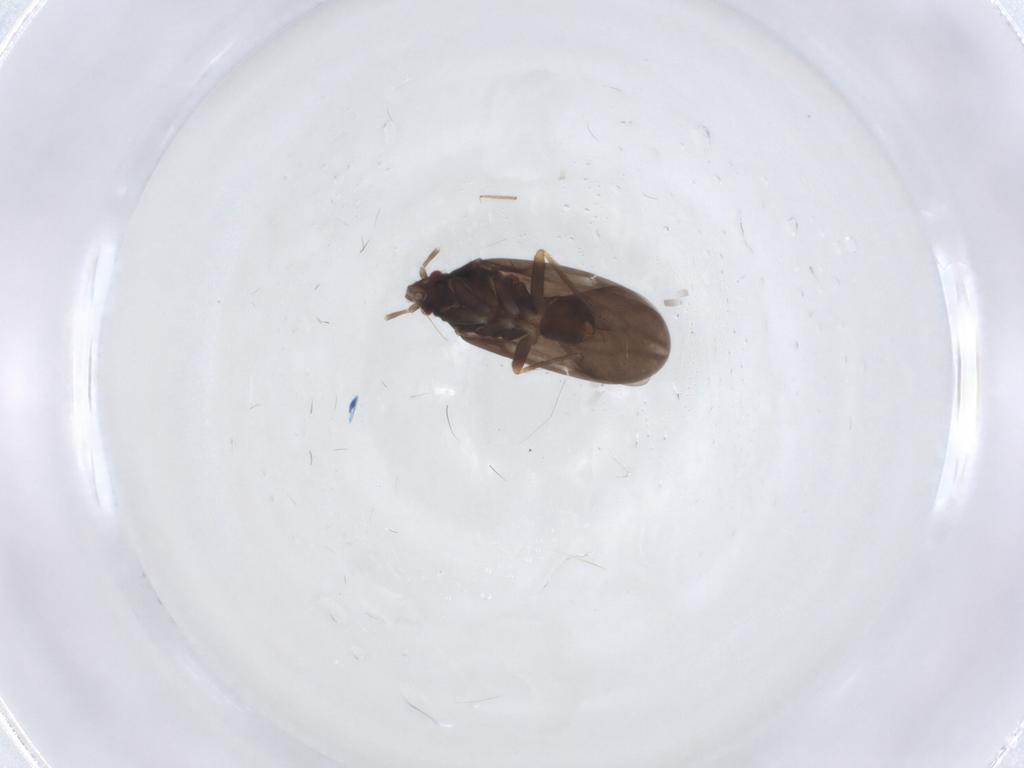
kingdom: Animalia
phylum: Arthropoda
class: Insecta
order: Hemiptera
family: Ceratocombidae
